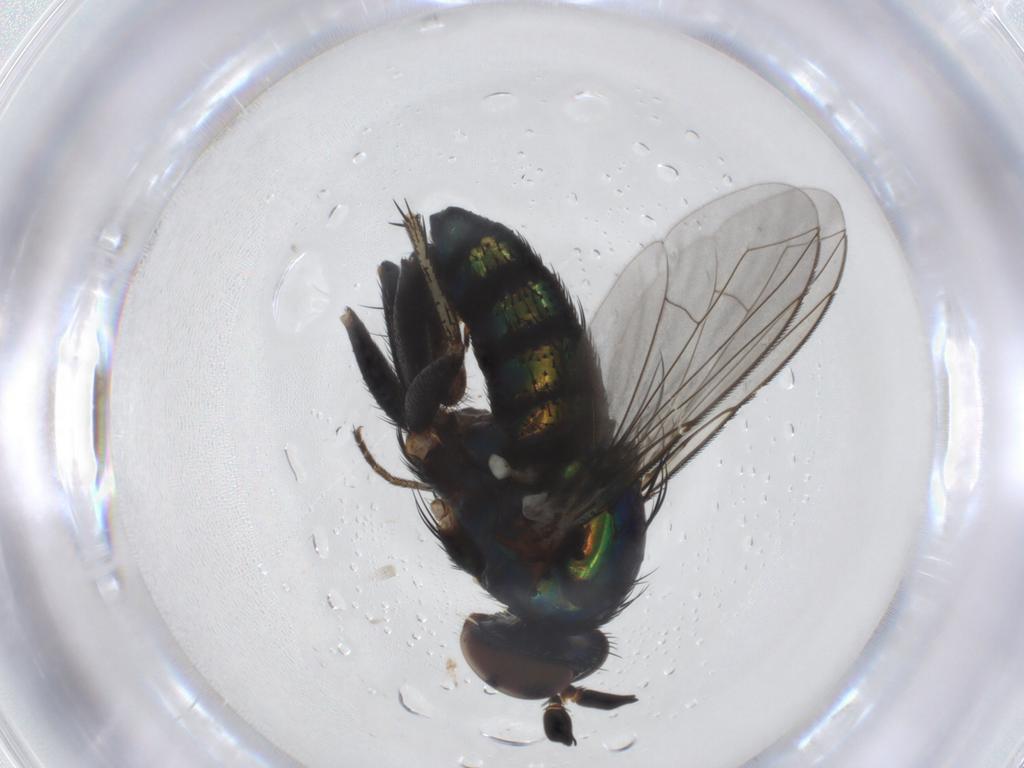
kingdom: Animalia
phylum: Arthropoda
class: Insecta
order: Diptera
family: Dolichopodidae
